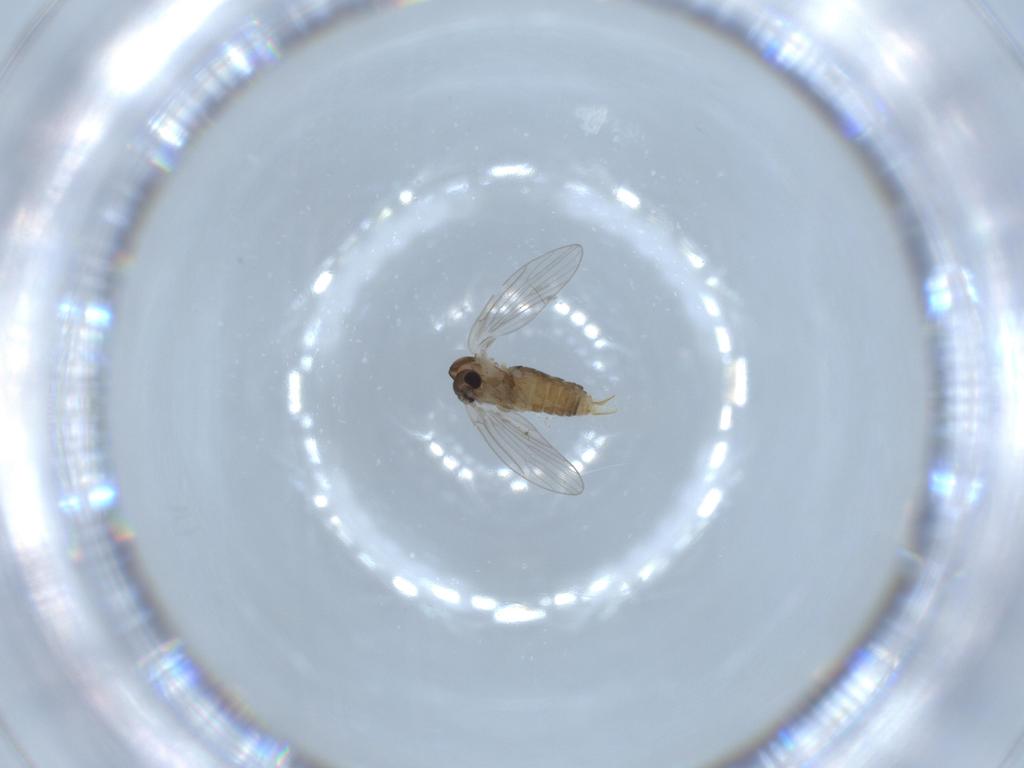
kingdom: Animalia
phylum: Arthropoda
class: Insecta
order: Diptera
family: Psychodidae
